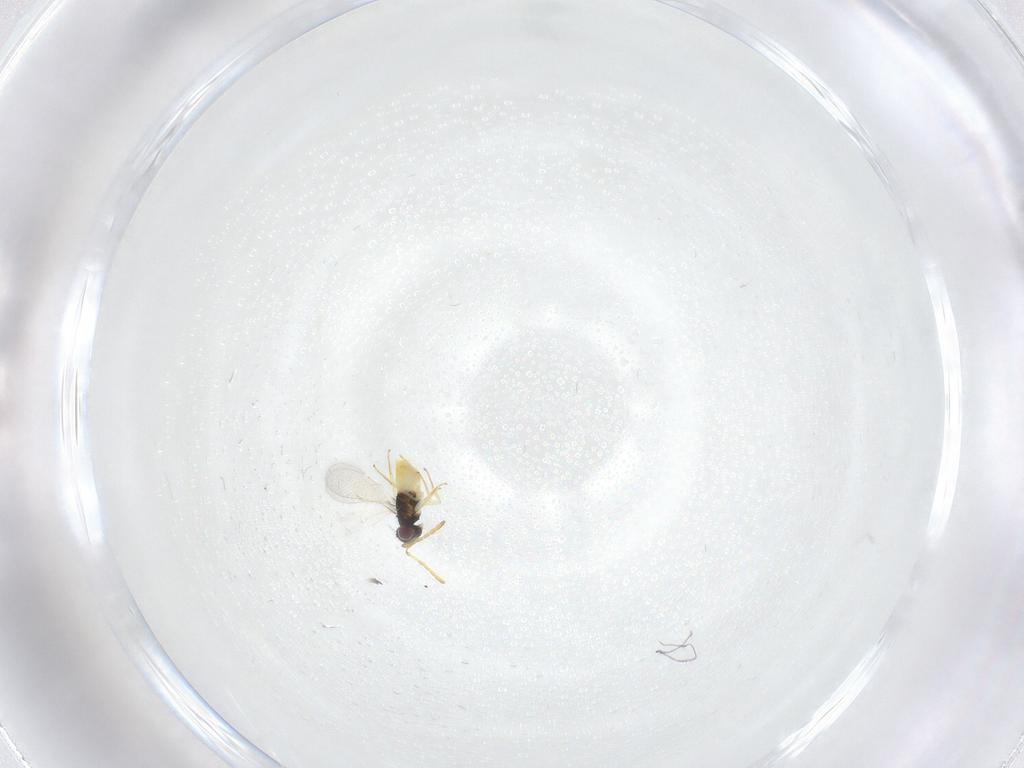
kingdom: Animalia
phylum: Arthropoda
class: Insecta
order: Hymenoptera
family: Aphelinidae
